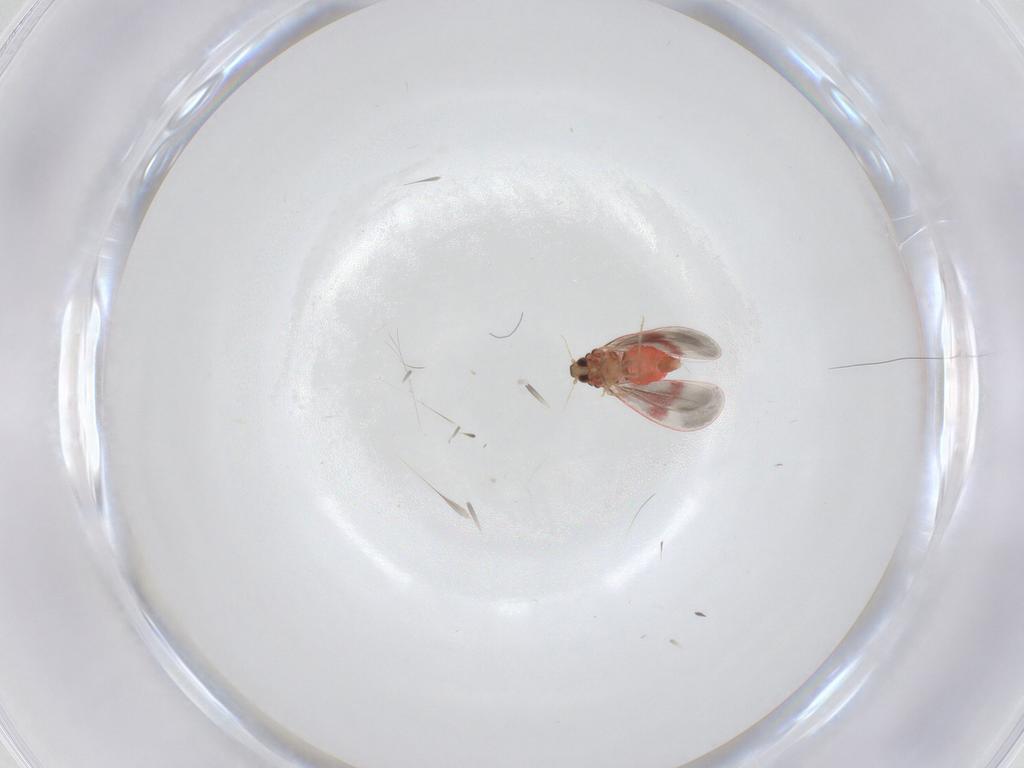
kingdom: Animalia
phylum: Arthropoda
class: Insecta
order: Hemiptera
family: Aleyrodidae
